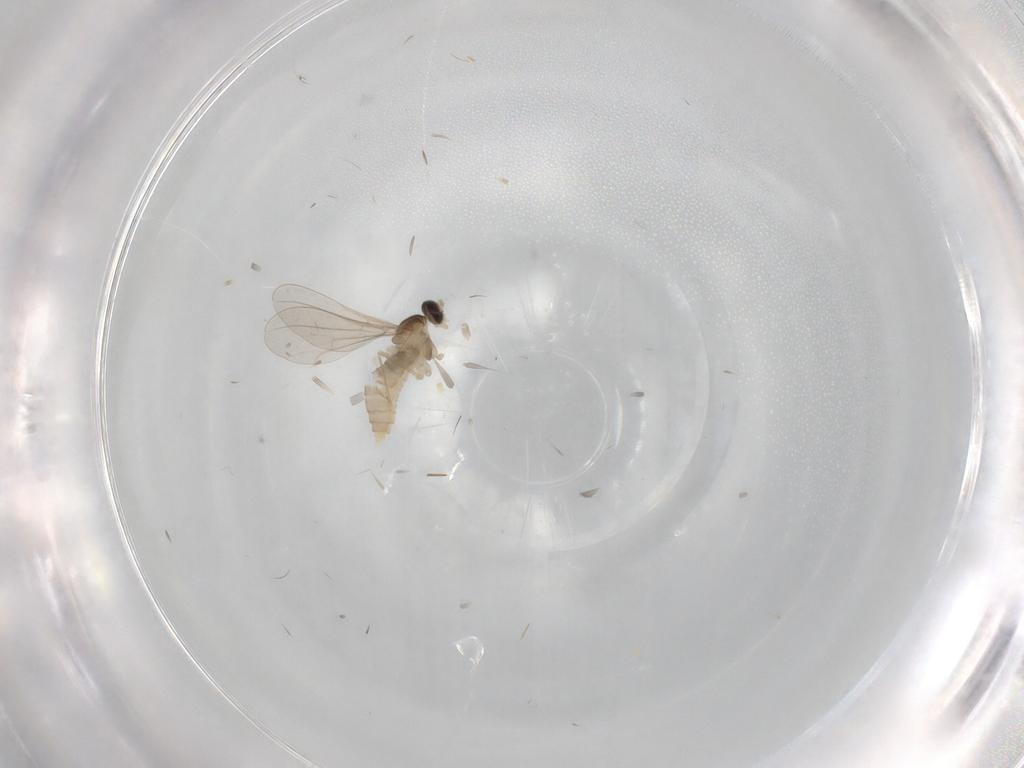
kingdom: Animalia
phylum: Arthropoda
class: Insecta
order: Diptera
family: Cecidomyiidae
